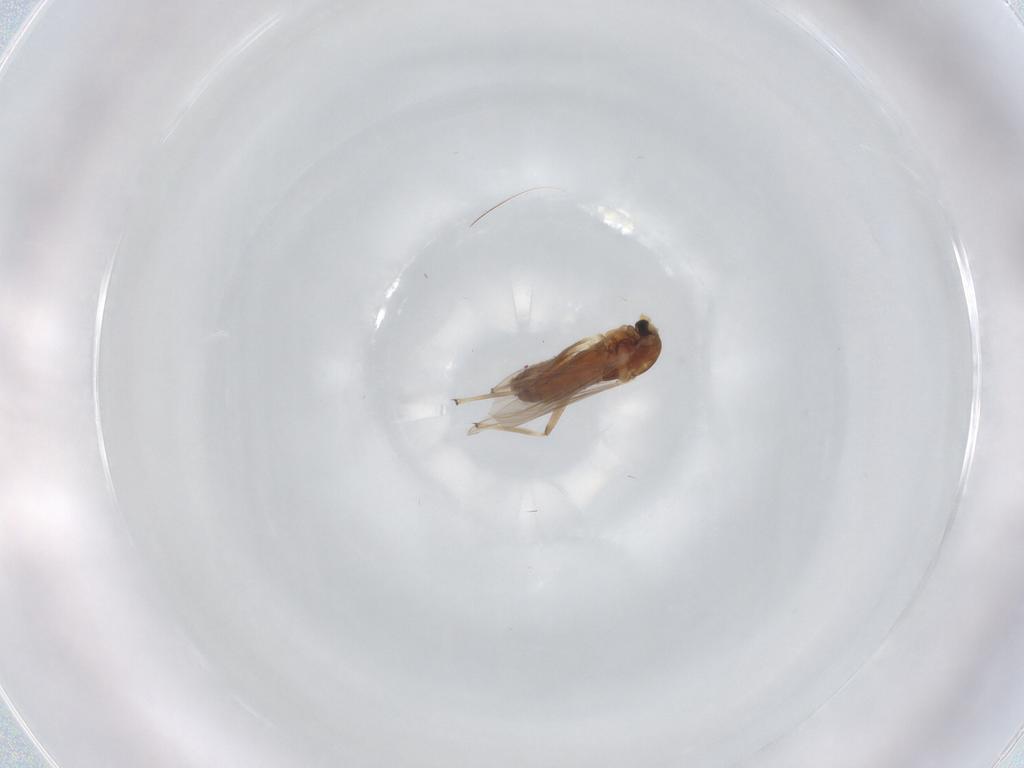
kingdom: Animalia
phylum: Arthropoda
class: Insecta
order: Diptera
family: Chironomidae
